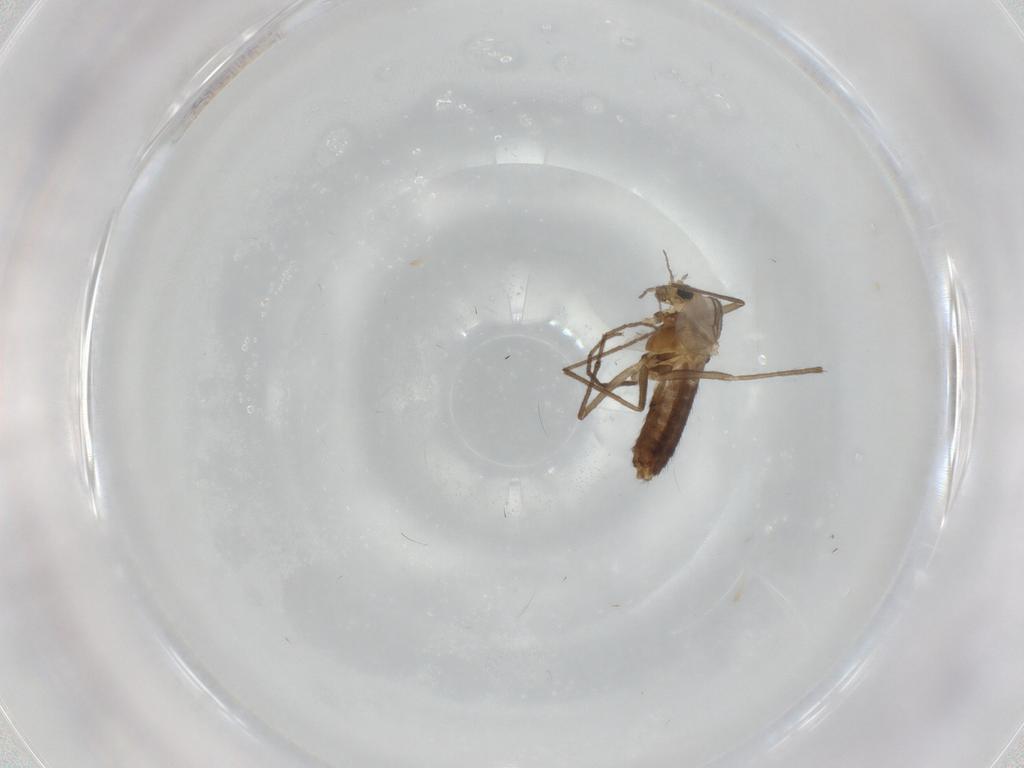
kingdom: Animalia
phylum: Arthropoda
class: Insecta
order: Diptera
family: Chironomidae
